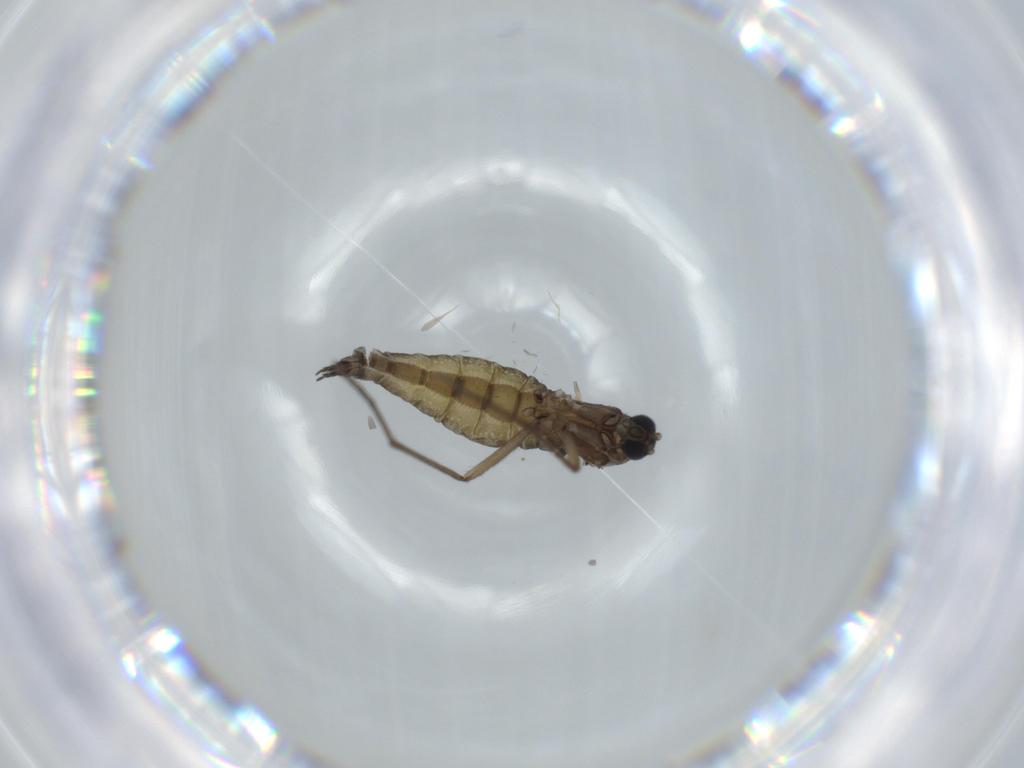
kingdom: Animalia
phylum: Arthropoda
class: Insecta
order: Diptera
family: Sciaridae
